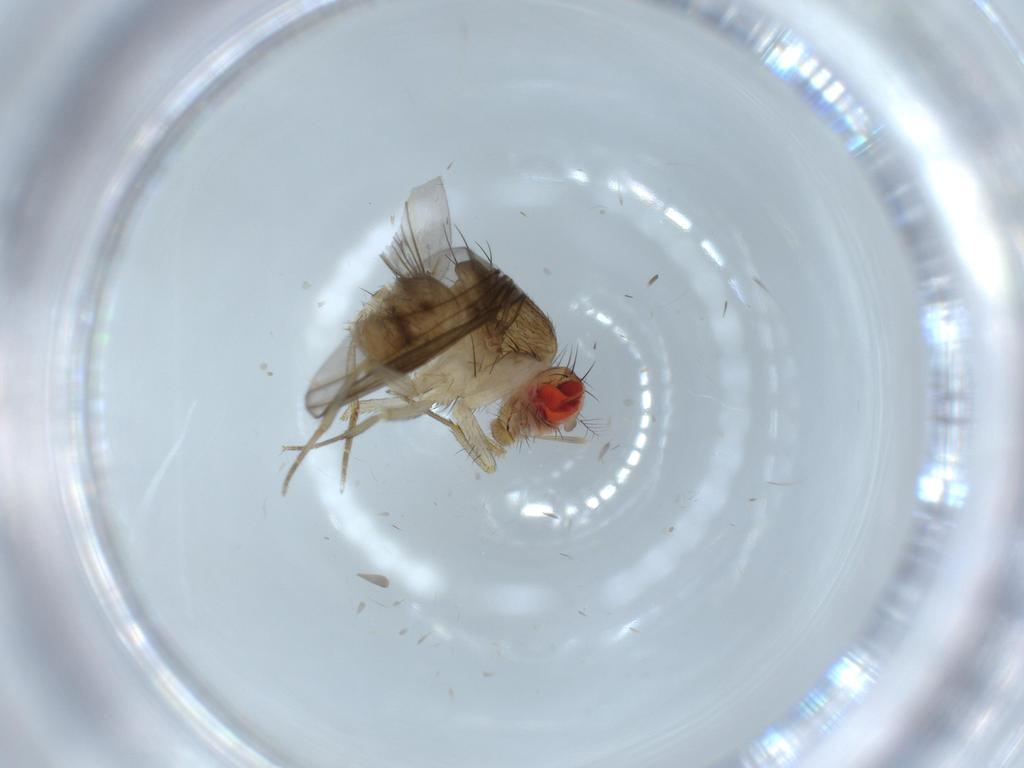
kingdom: Animalia
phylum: Arthropoda
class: Insecta
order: Diptera
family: Drosophilidae
